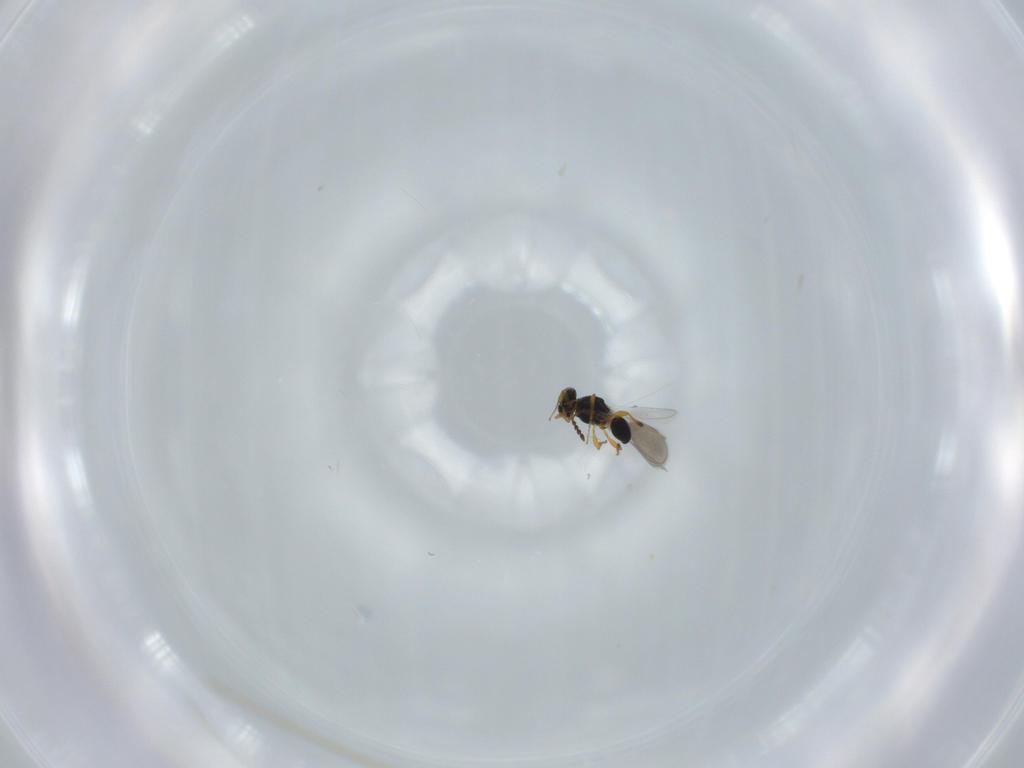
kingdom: Animalia
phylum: Arthropoda
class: Insecta
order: Hymenoptera
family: Platygastridae
